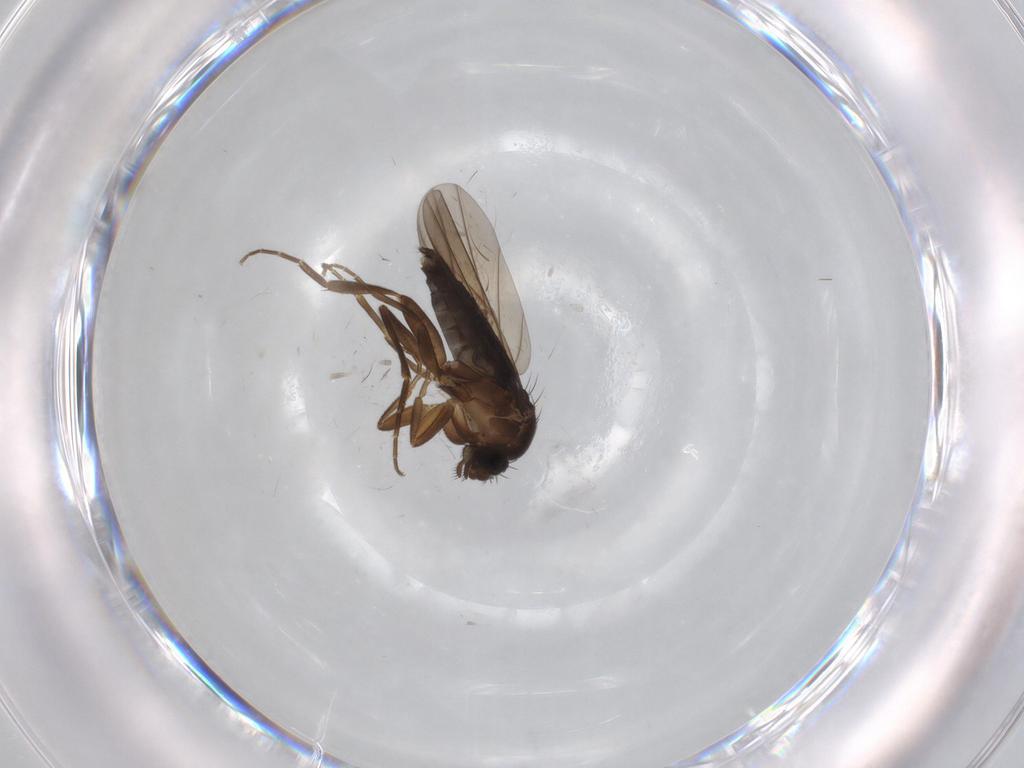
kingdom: Animalia
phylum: Arthropoda
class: Insecta
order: Diptera
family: Phoridae
